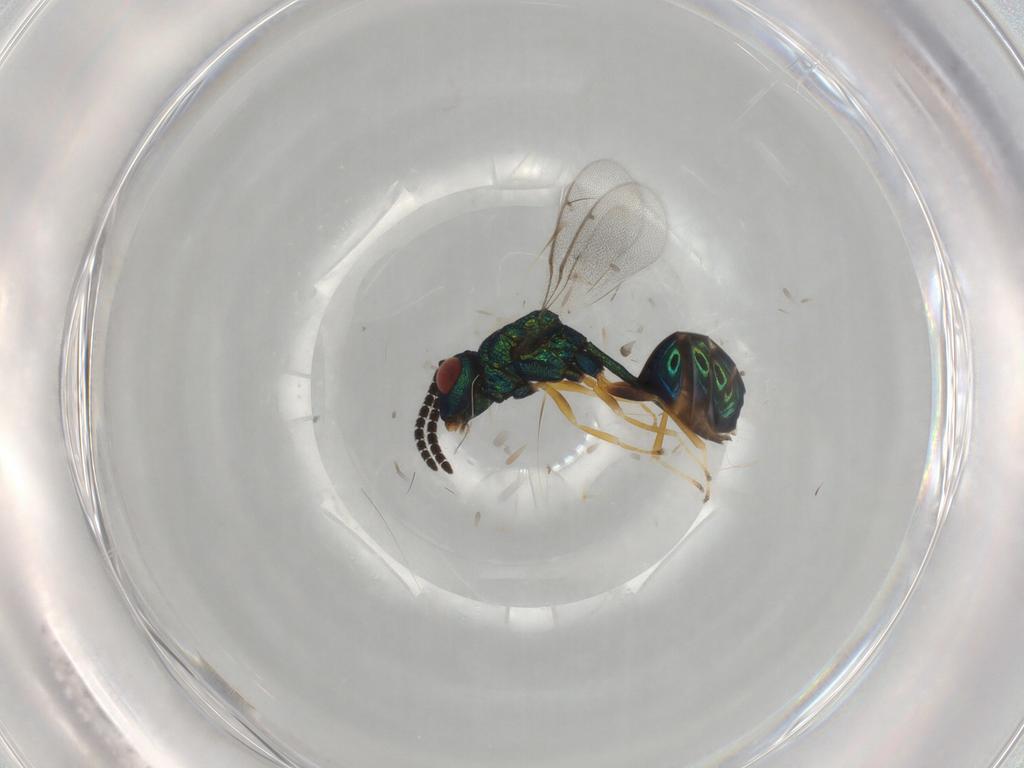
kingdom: Animalia
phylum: Arthropoda
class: Insecta
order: Hymenoptera
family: Eucharitidae
